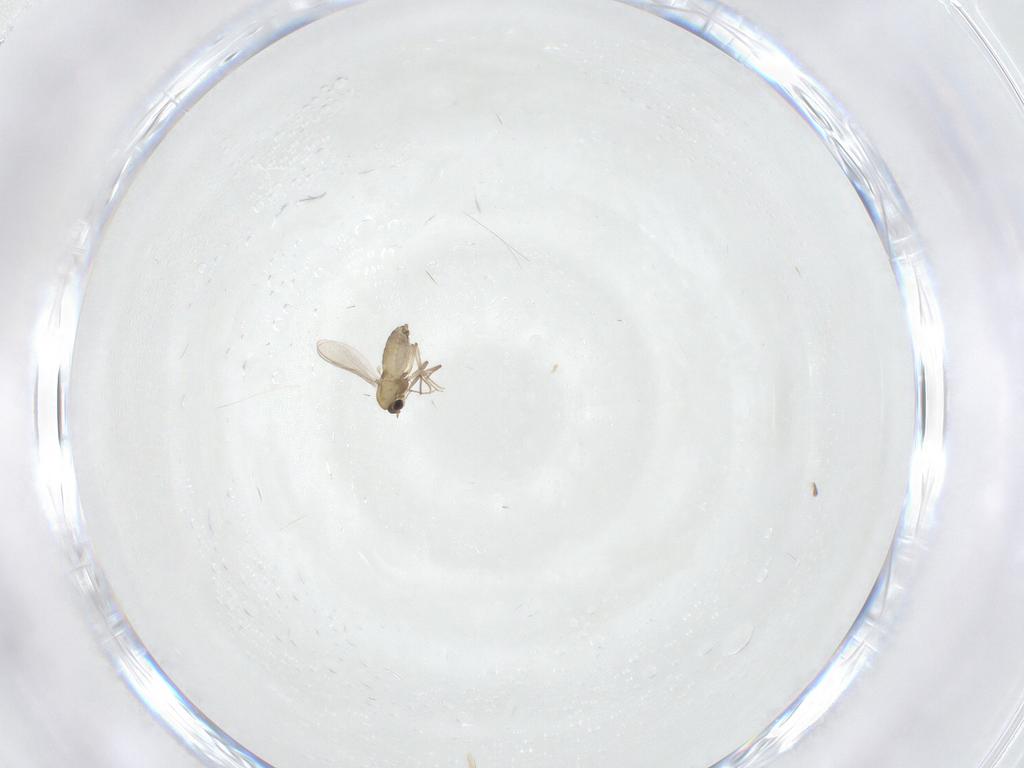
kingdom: Animalia
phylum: Arthropoda
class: Insecta
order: Diptera
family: Chironomidae
